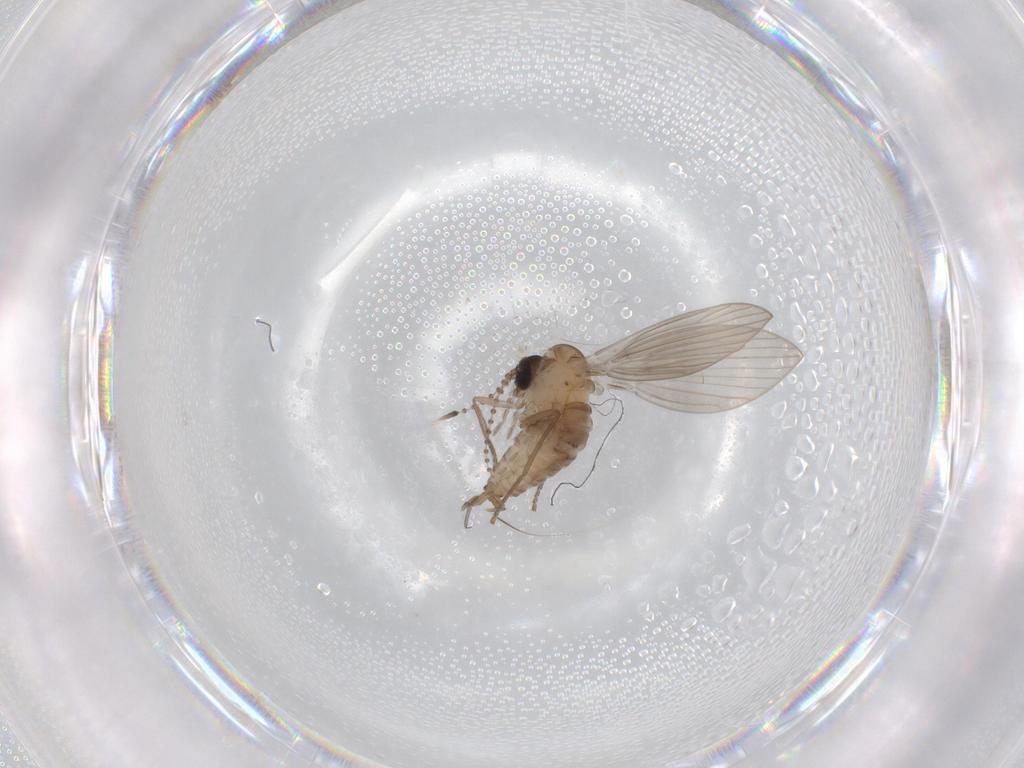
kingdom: Animalia
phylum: Arthropoda
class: Insecta
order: Diptera
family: Psychodidae
